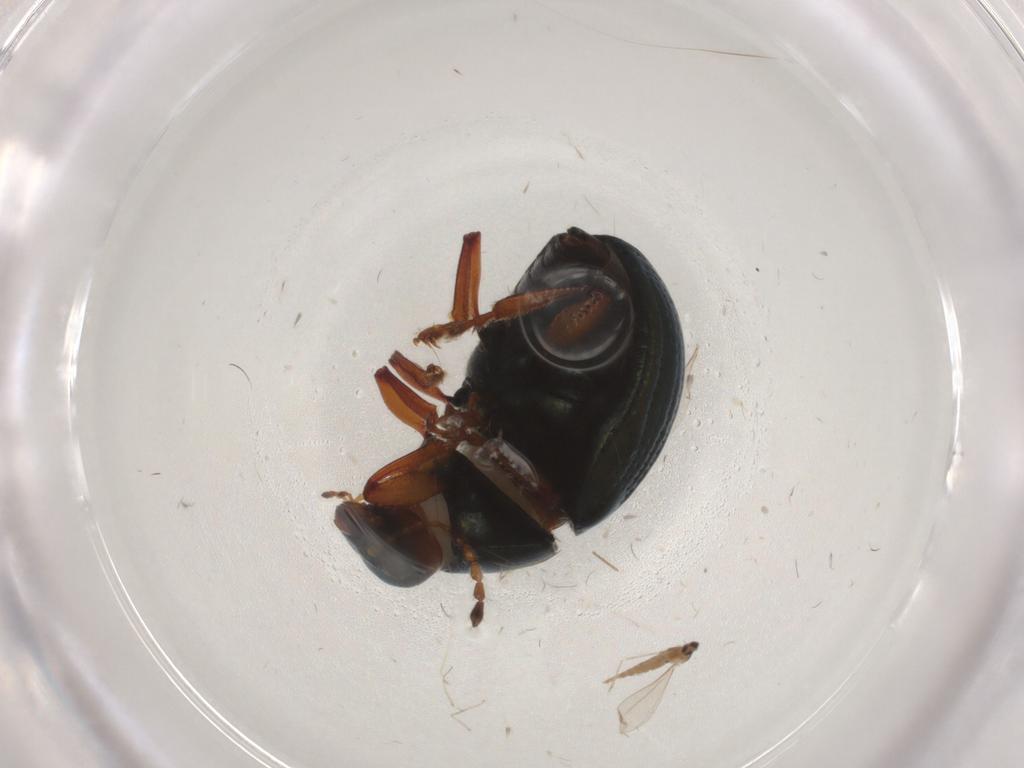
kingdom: Animalia
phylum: Arthropoda
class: Insecta
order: Coleoptera
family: Chrysomelidae
